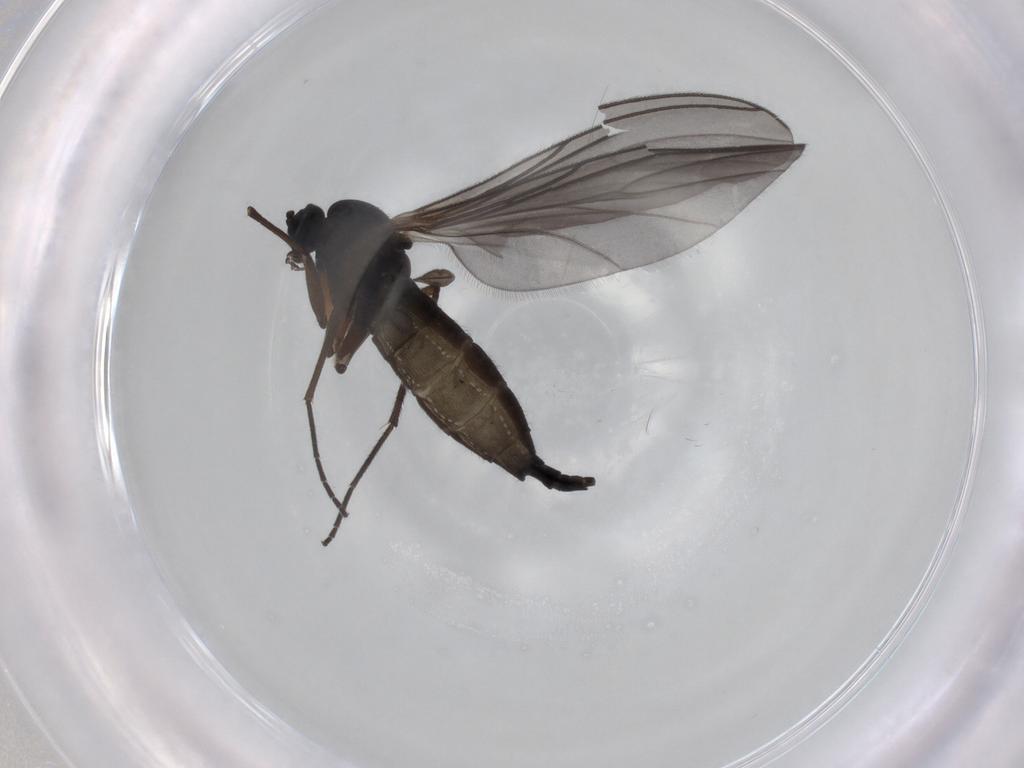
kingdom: Animalia
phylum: Arthropoda
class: Insecta
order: Diptera
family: Sciaridae
